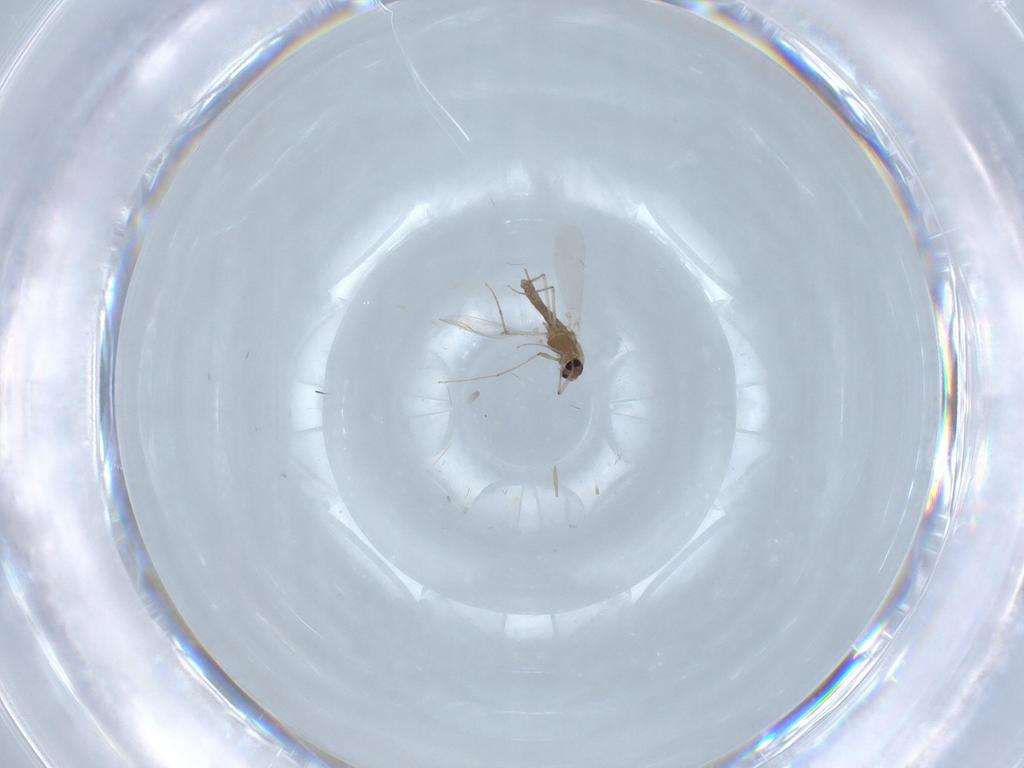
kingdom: Animalia
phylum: Arthropoda
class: Insecta
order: Diptera
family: Chironomidae
